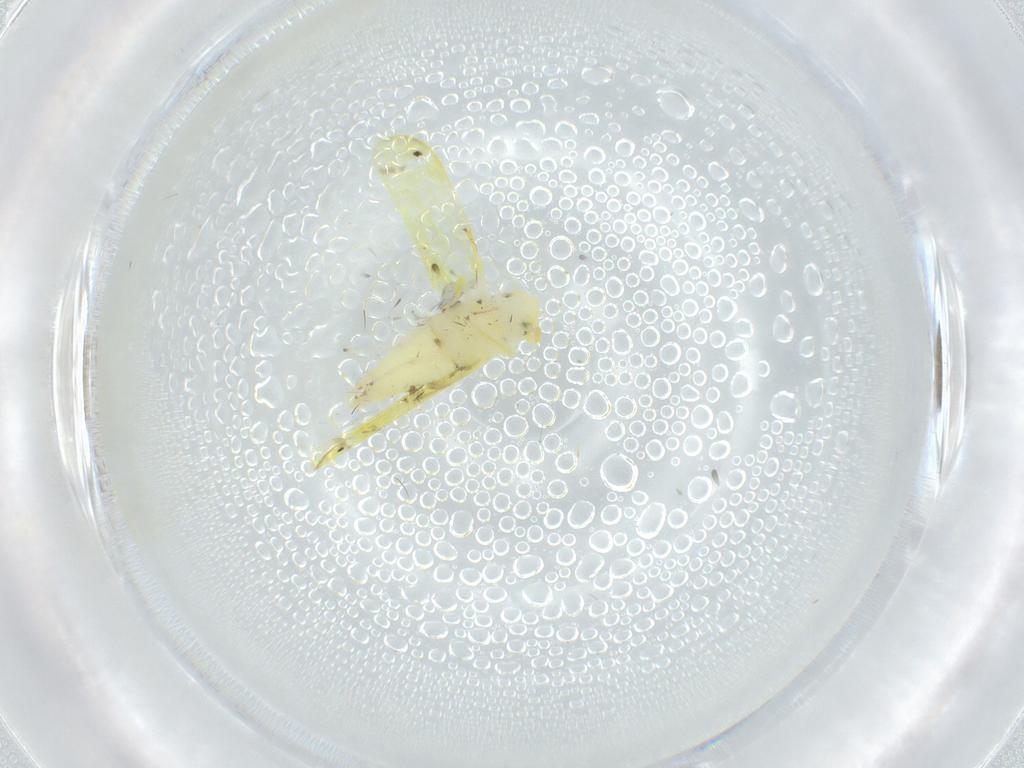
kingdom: Animalia
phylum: Arthropoda
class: Insecta
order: Hemiptera
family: Cicadellidae
